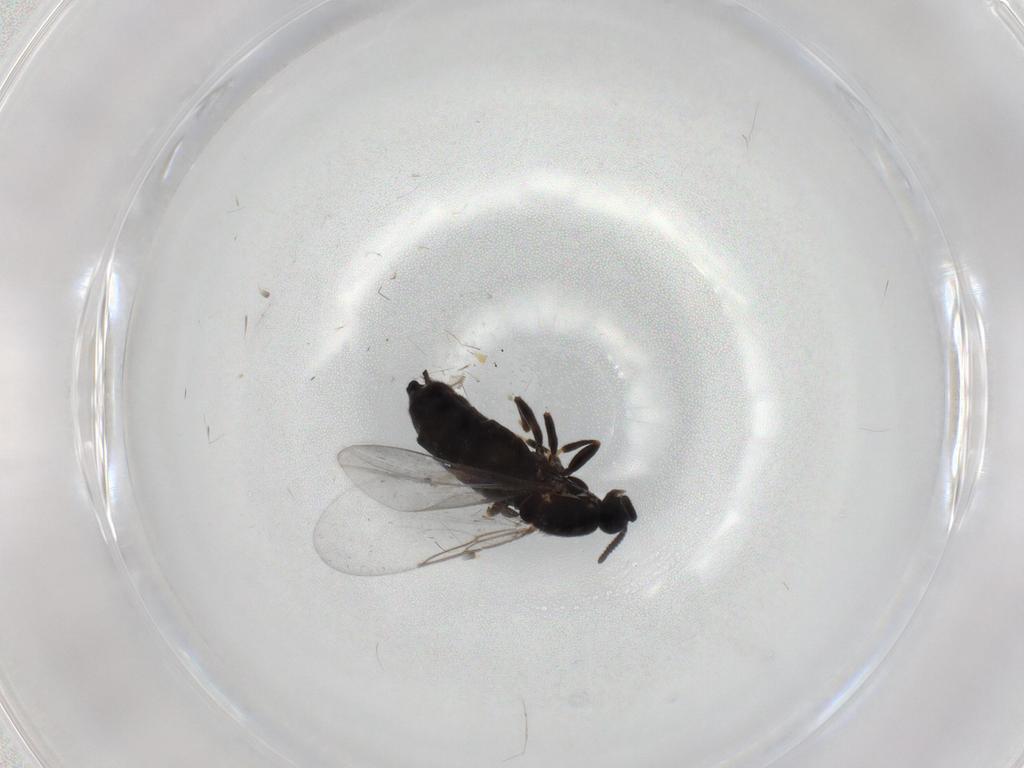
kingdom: Animalia
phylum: Arthropoda
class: Insecta
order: Diptera
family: Scatopsidae
